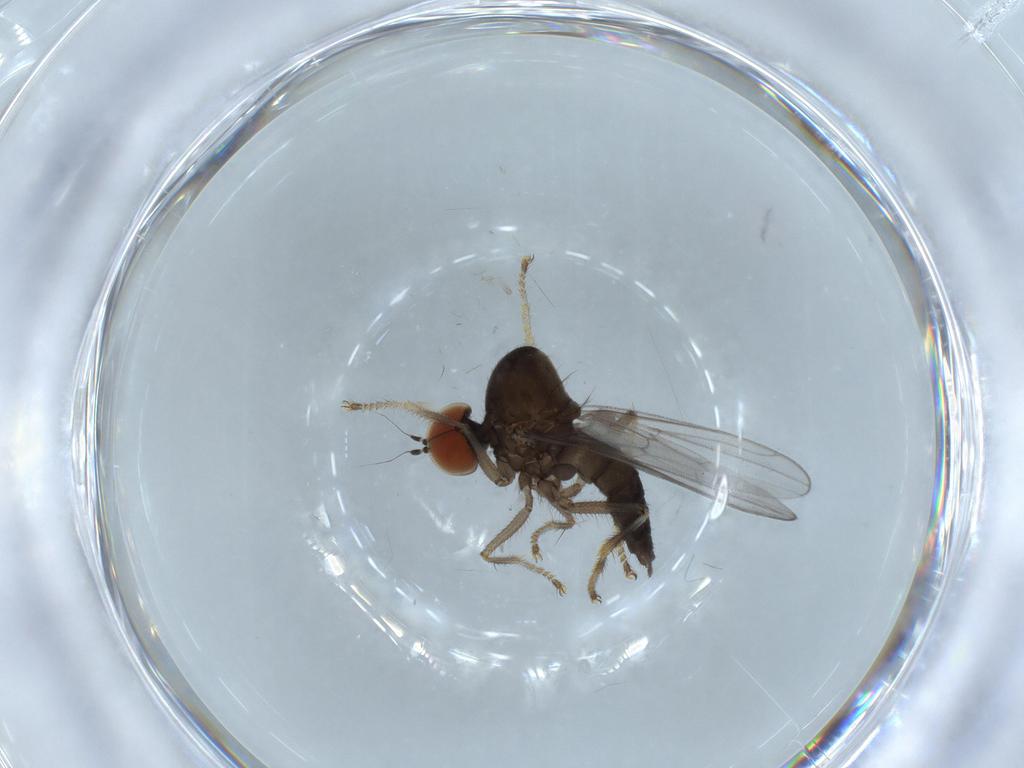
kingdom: Animalia
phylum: Arthropoda
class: Insecta
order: Diptera
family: Hybotidae
